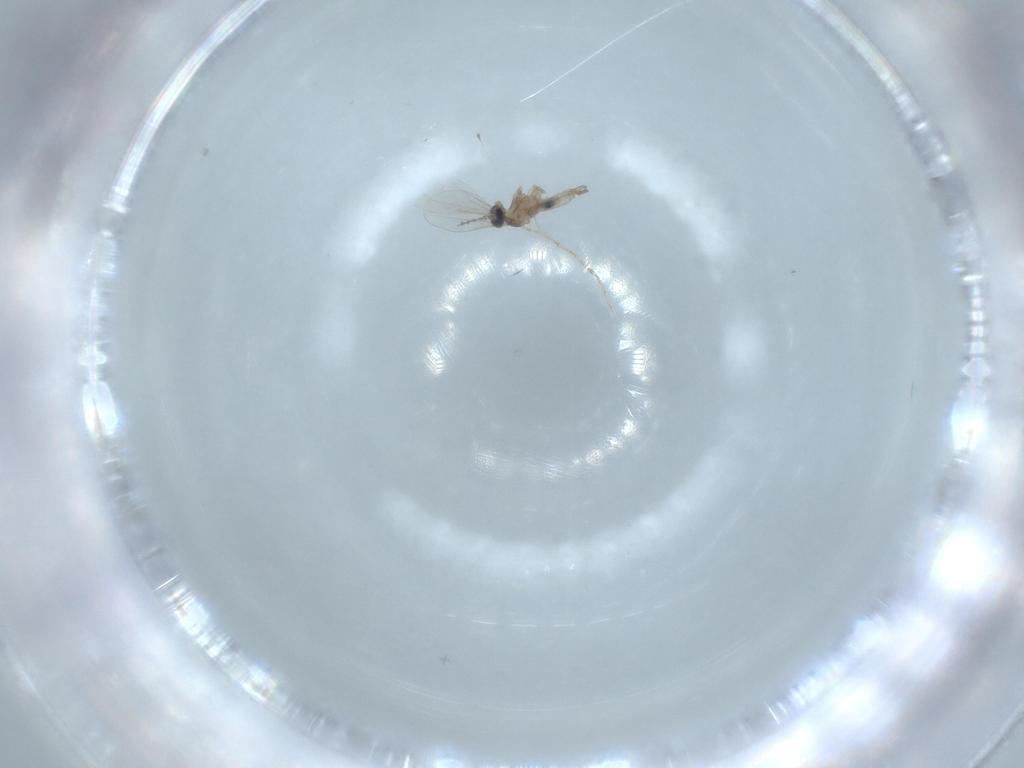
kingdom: Animalia
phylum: Arthropoda
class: Insecta
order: Diptera
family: Cecidomyiidae
